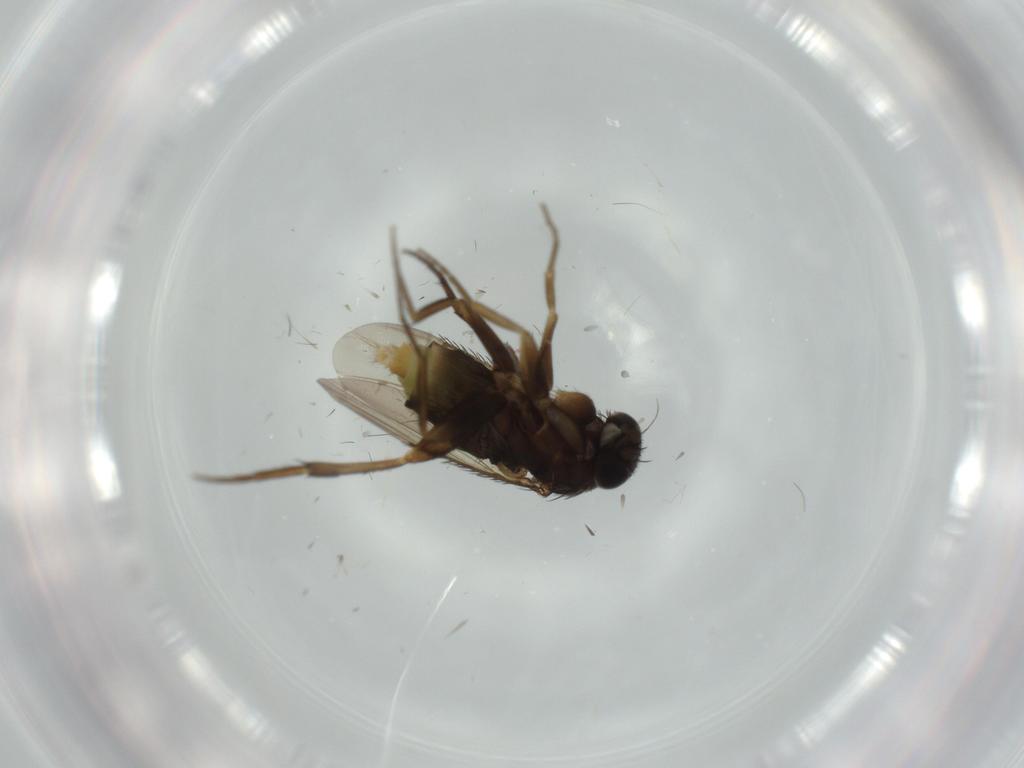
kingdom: Animalia
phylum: Arthropoda
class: Insecta
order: Diptera
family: Phoridae
